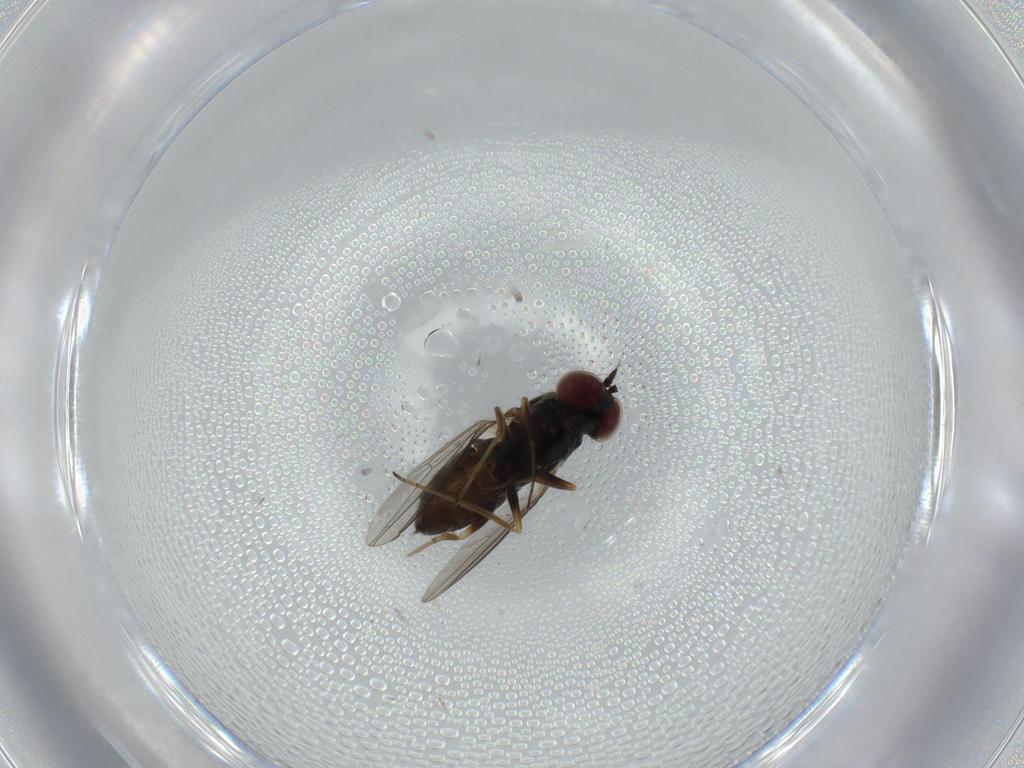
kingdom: Animalia
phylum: Arthropoda
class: Insecta
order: Diptera
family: Dolichopodidae
